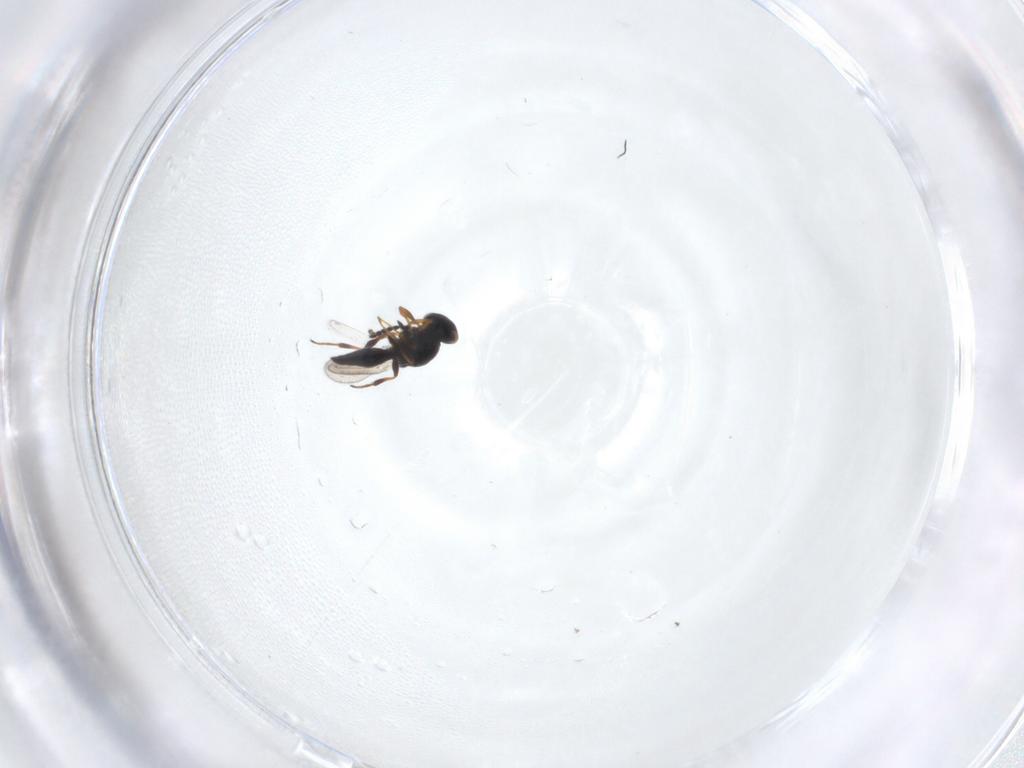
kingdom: Animalia
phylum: Arthropoda
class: Insecta
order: Hymenoptera
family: Platygastridae
